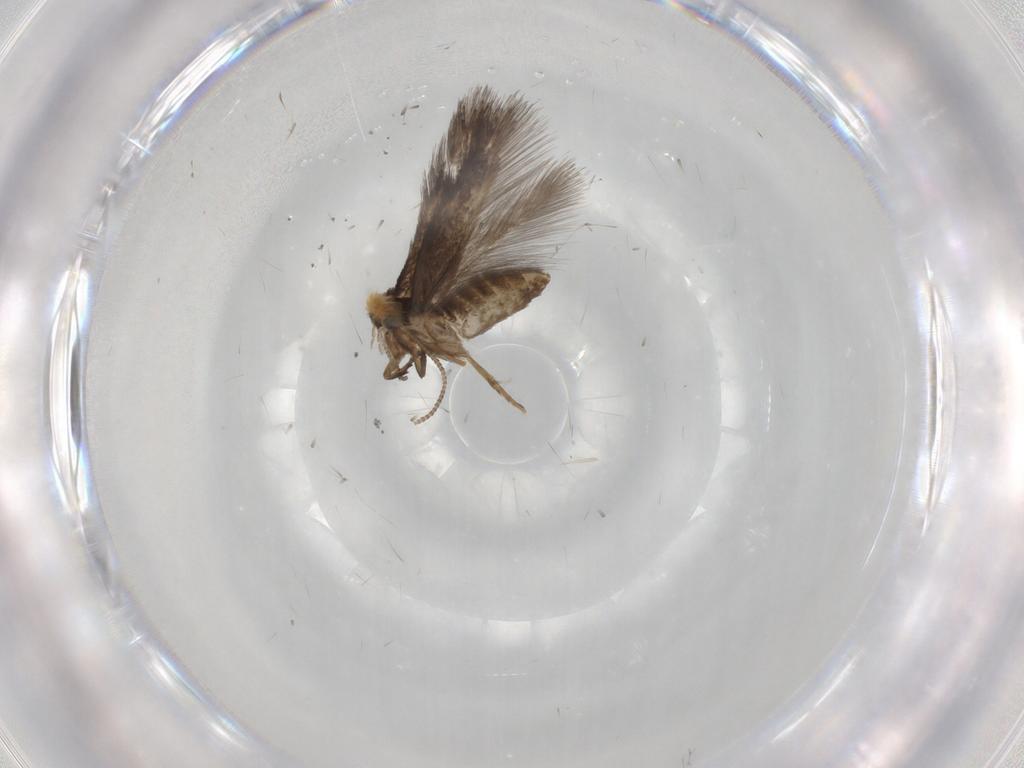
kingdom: Animalia
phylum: Arthropoda
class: Insecta
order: Lepidoptera
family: Nepticulidae
